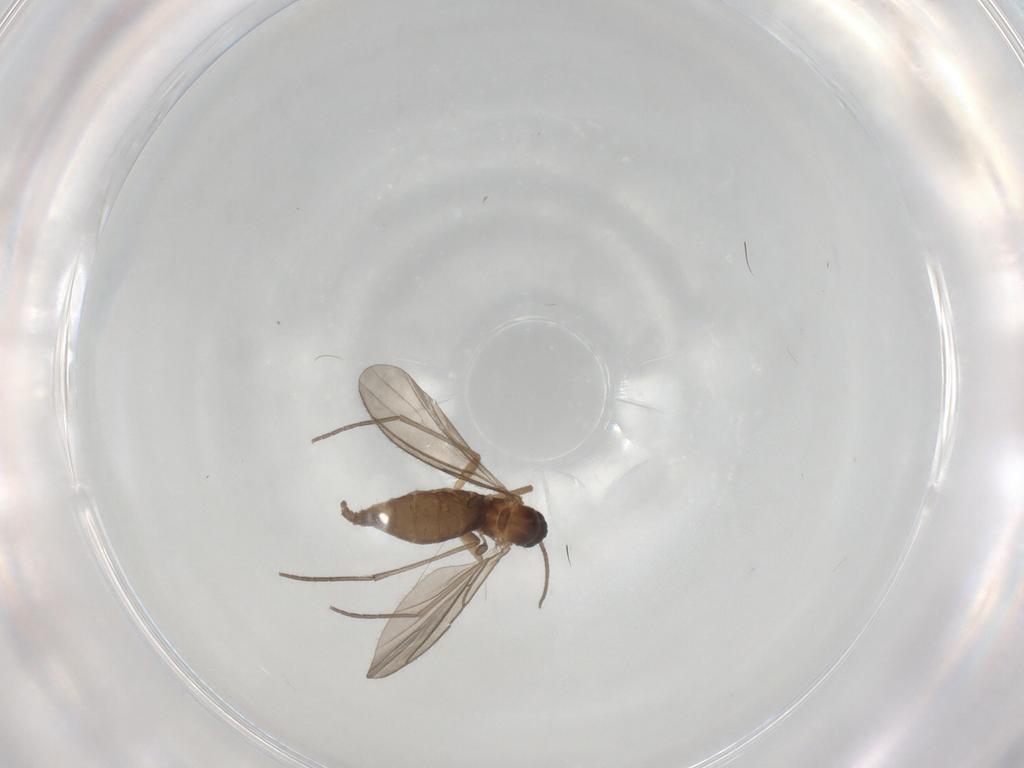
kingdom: Animalia
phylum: Arthropoda
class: Insecta
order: Diptera
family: Sciaridae
